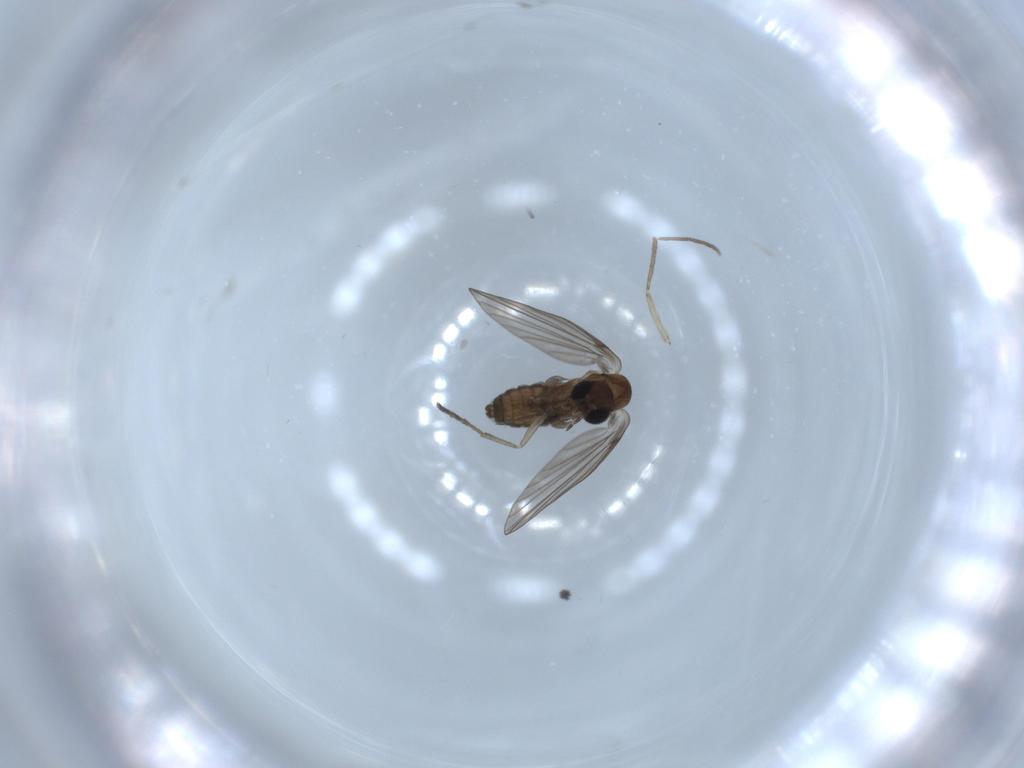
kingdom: Animalia
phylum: Arthropoda
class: Insecta
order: Diptera
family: Psychodidae
